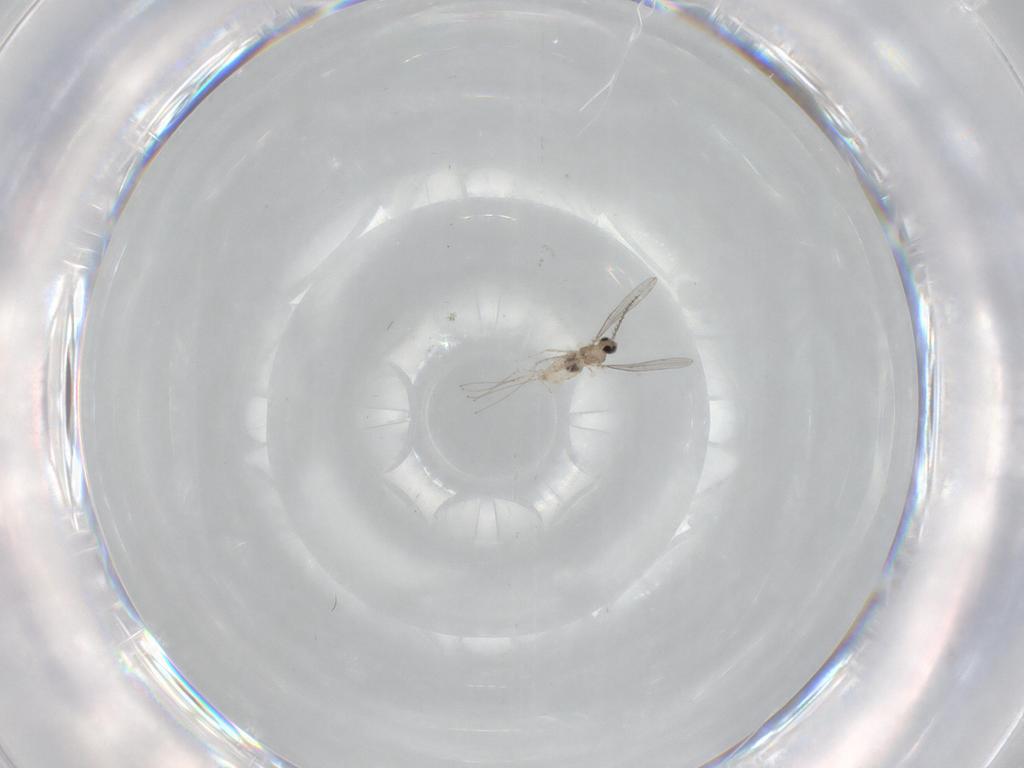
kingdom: Animalia
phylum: Arthropoda
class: Insecta
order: Diptera
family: Cecidomyiidae
